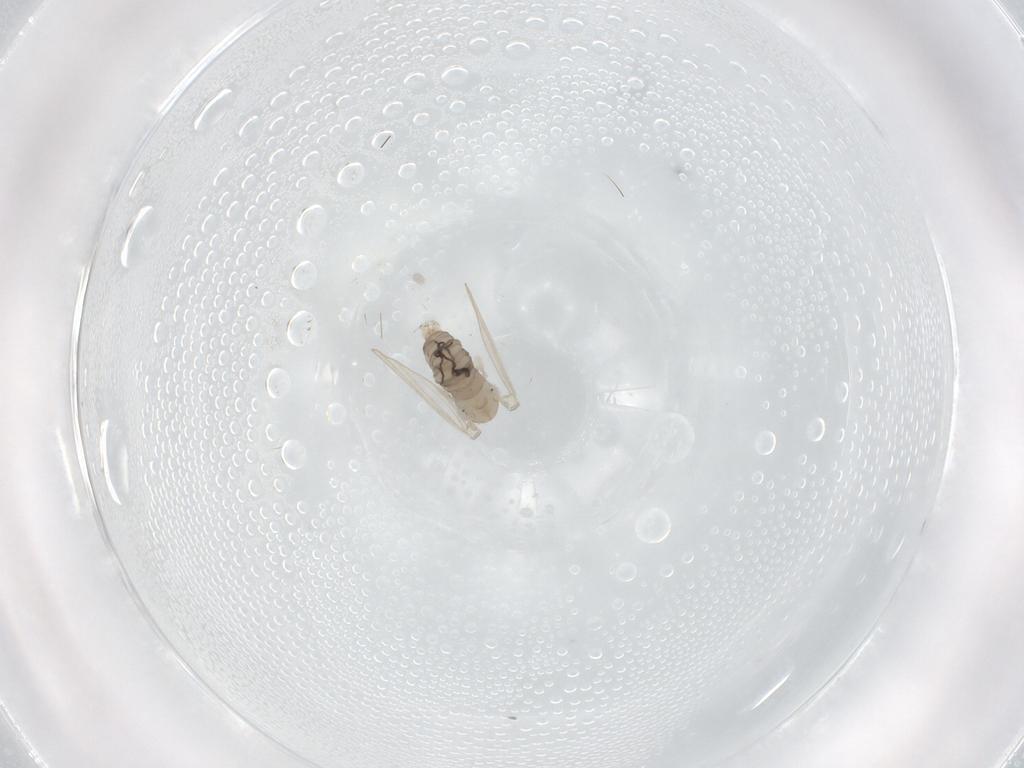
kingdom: Animalia
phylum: Arthropoda
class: Insecta
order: Diptera
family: Psychodidae
